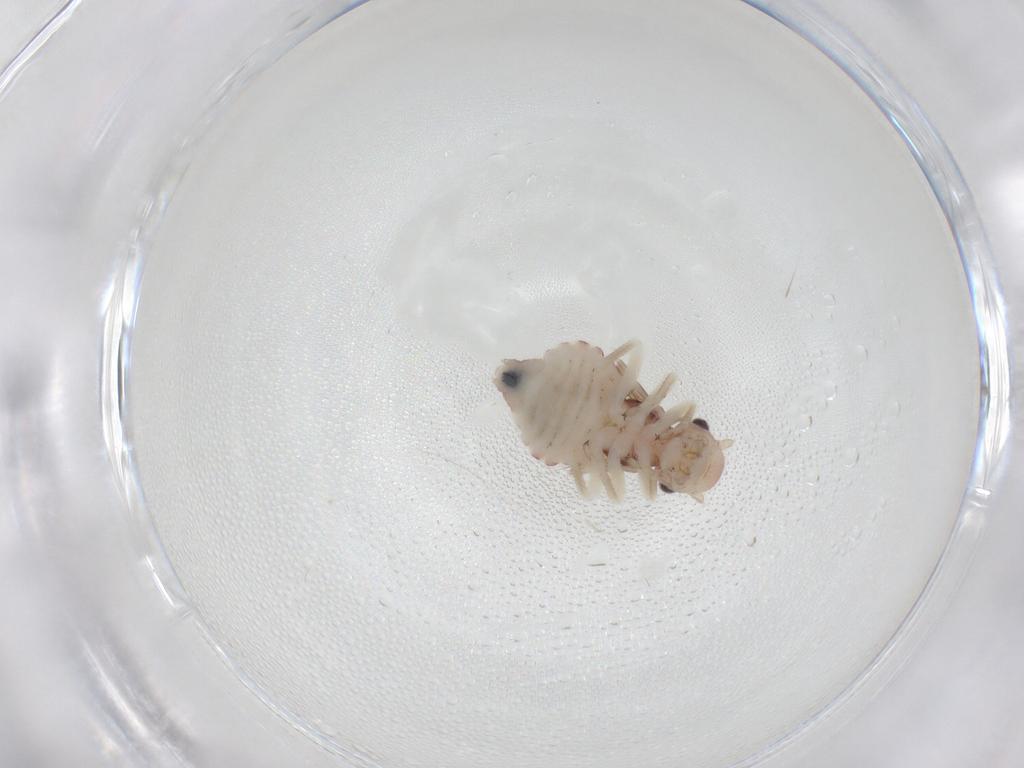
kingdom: Animalia
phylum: Arthropoda
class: Insecta
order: Psocodea
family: Amphipsocidae
